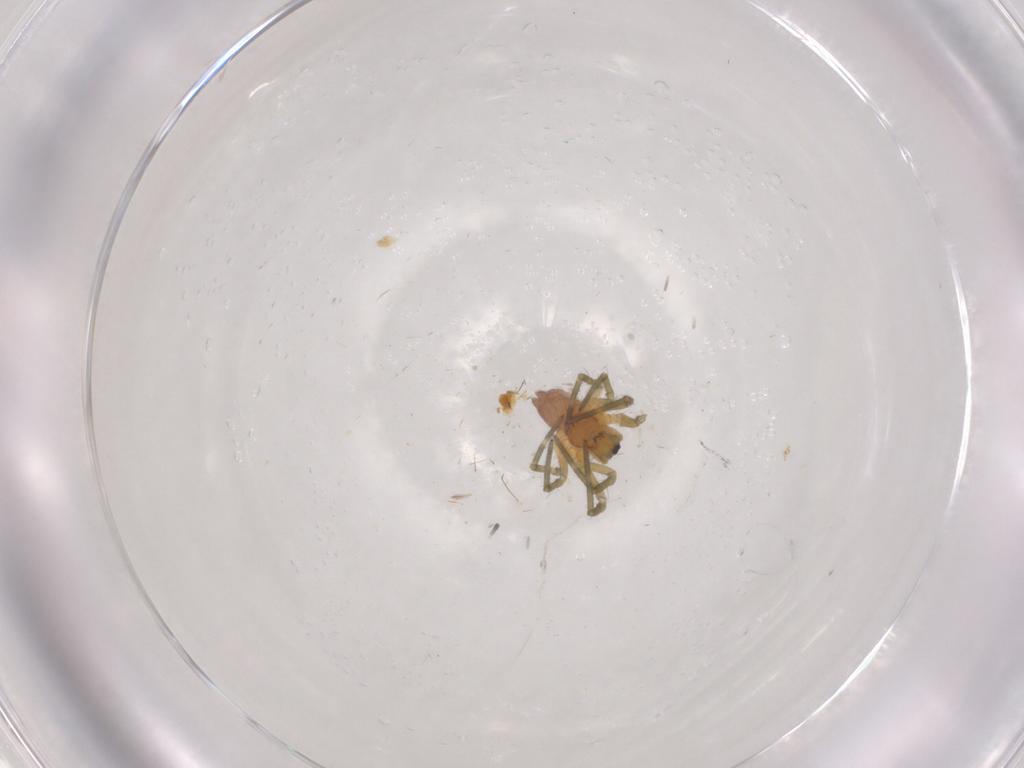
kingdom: Animalia
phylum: Arthropoda
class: Arachnida
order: Araneae
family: Linyphiidae
